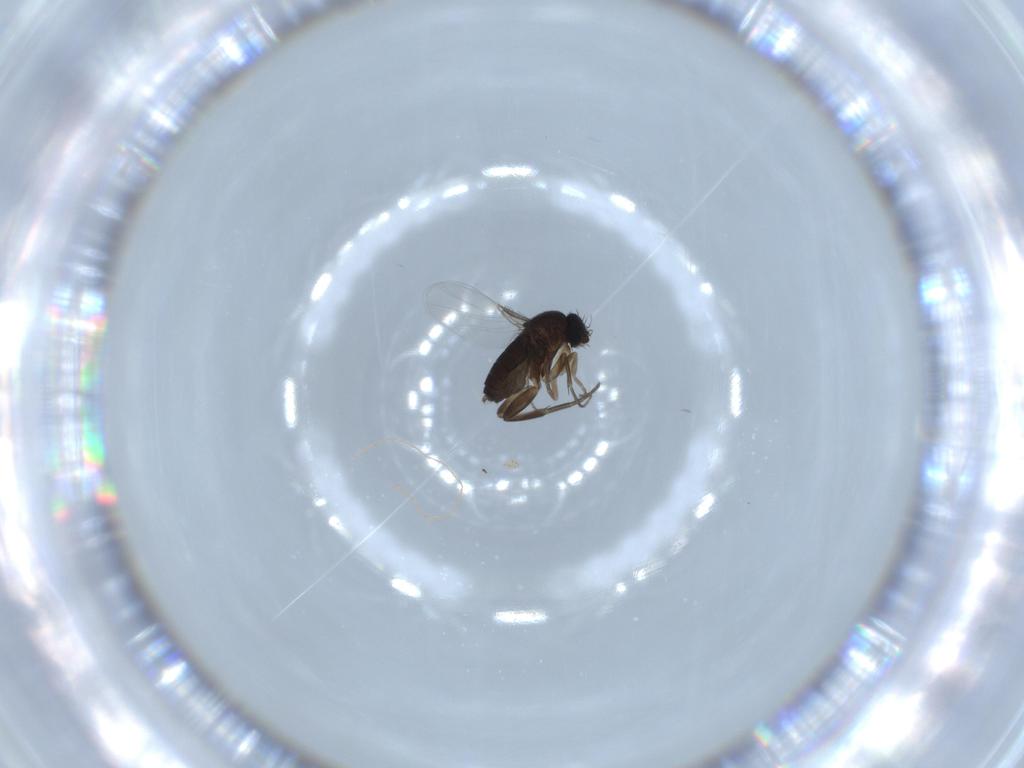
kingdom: Animalia
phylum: Arthropoda
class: Insecta
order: Diptera
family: Phoridae
